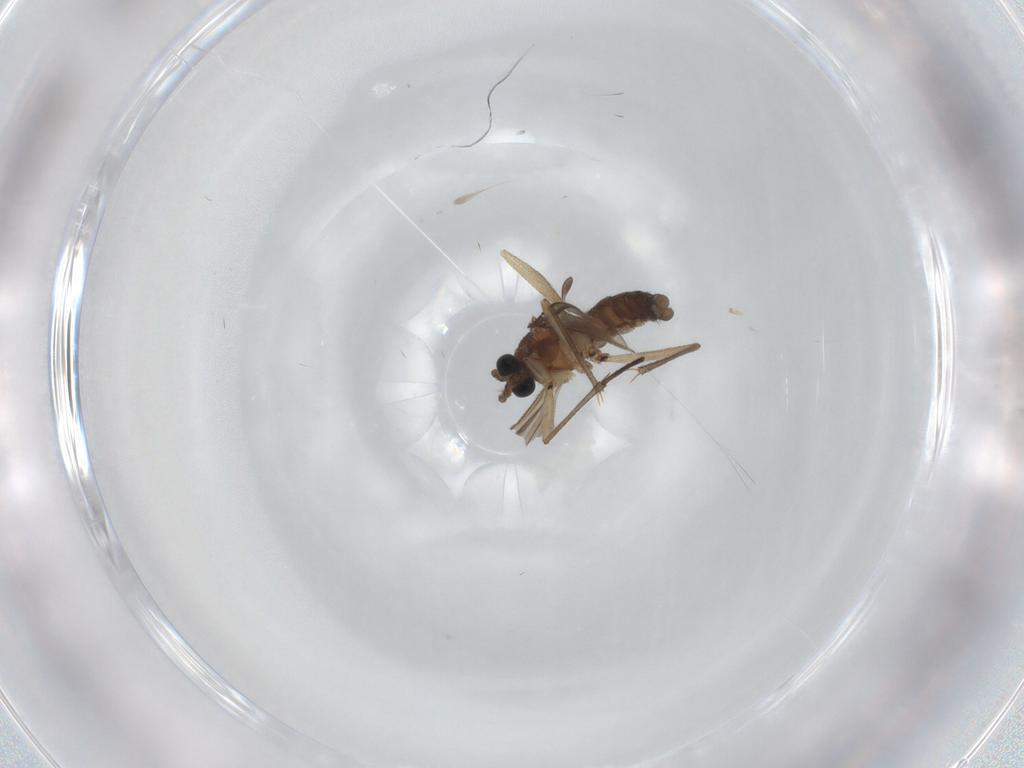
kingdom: Animalia
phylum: Arthropoda
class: Insecta
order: Diptera
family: Sciaridae
